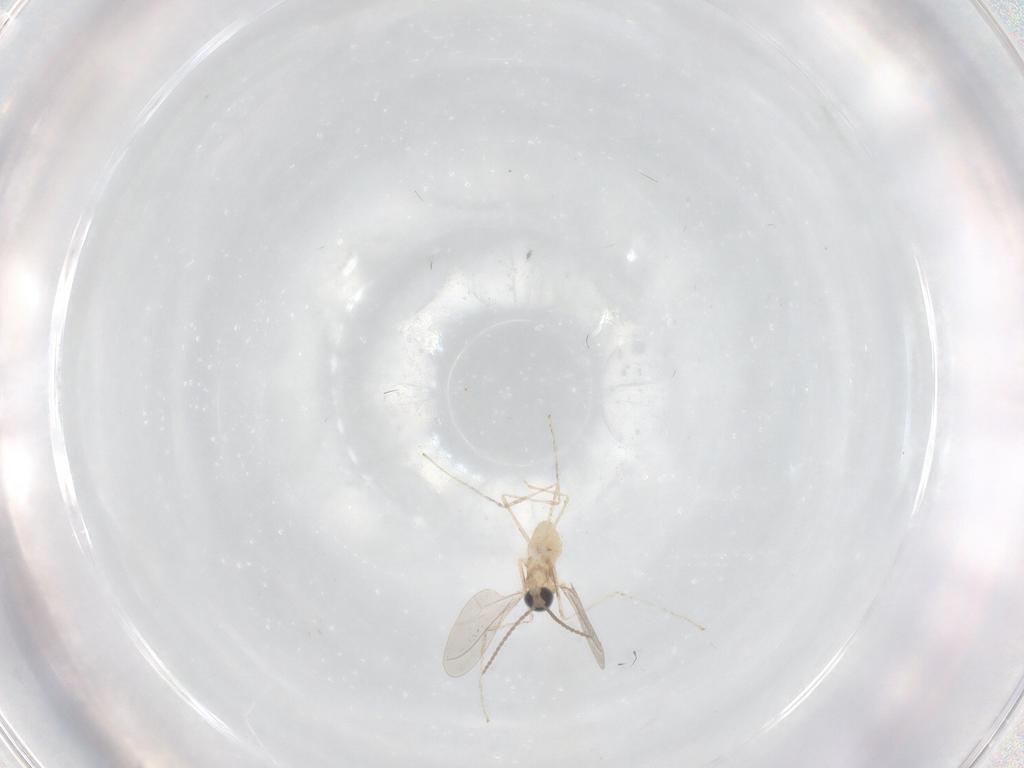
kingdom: Animalia
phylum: Arthropoda
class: Insecta
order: Diptera
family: Cecidomyiidae
